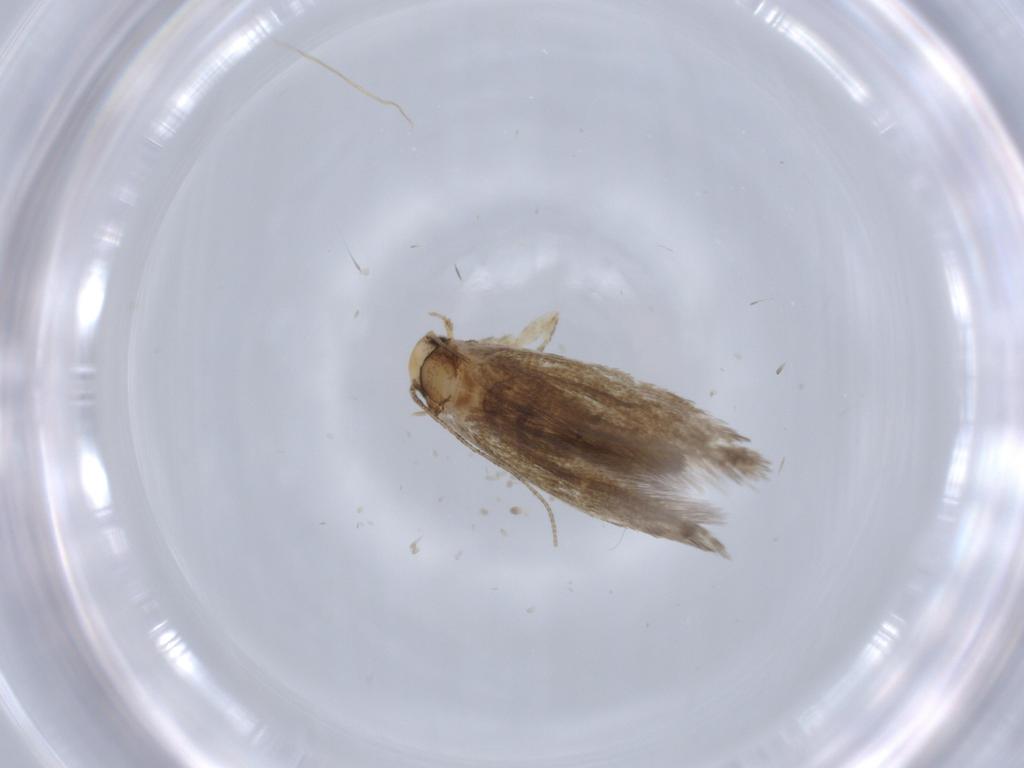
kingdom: Animalia
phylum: Arthropoda
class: Insecta
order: Lepidoptera
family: Tineidae
